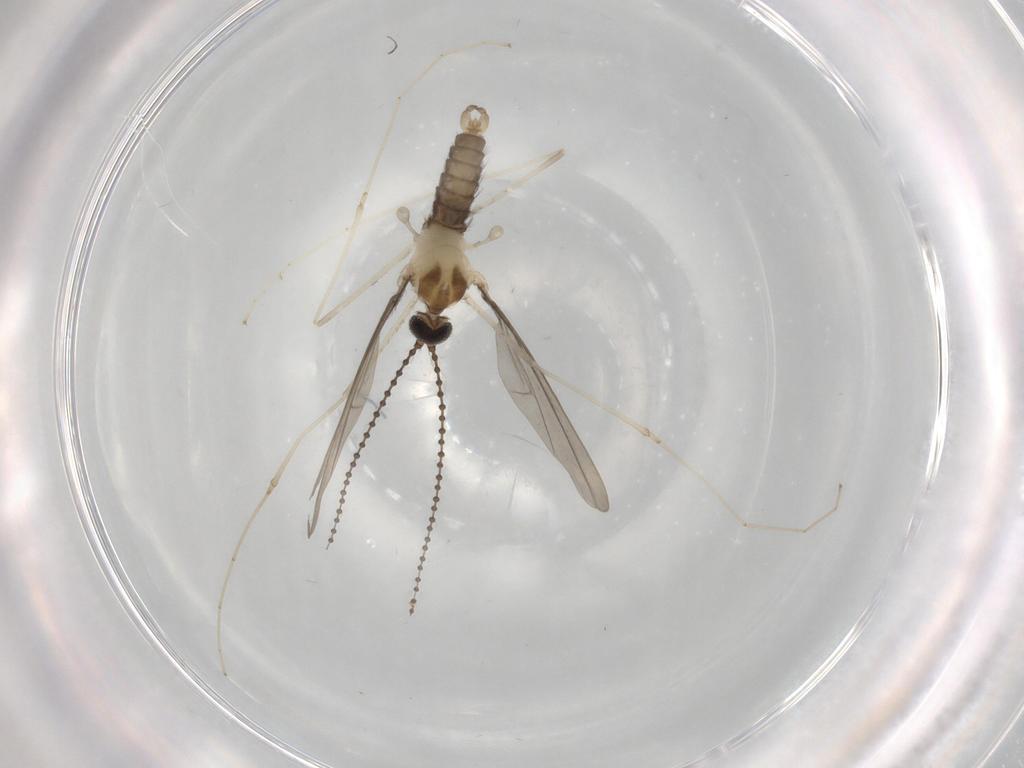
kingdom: Animalia
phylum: Arthropoda
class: Insecta
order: Diptera
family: Cecidomyiidae
